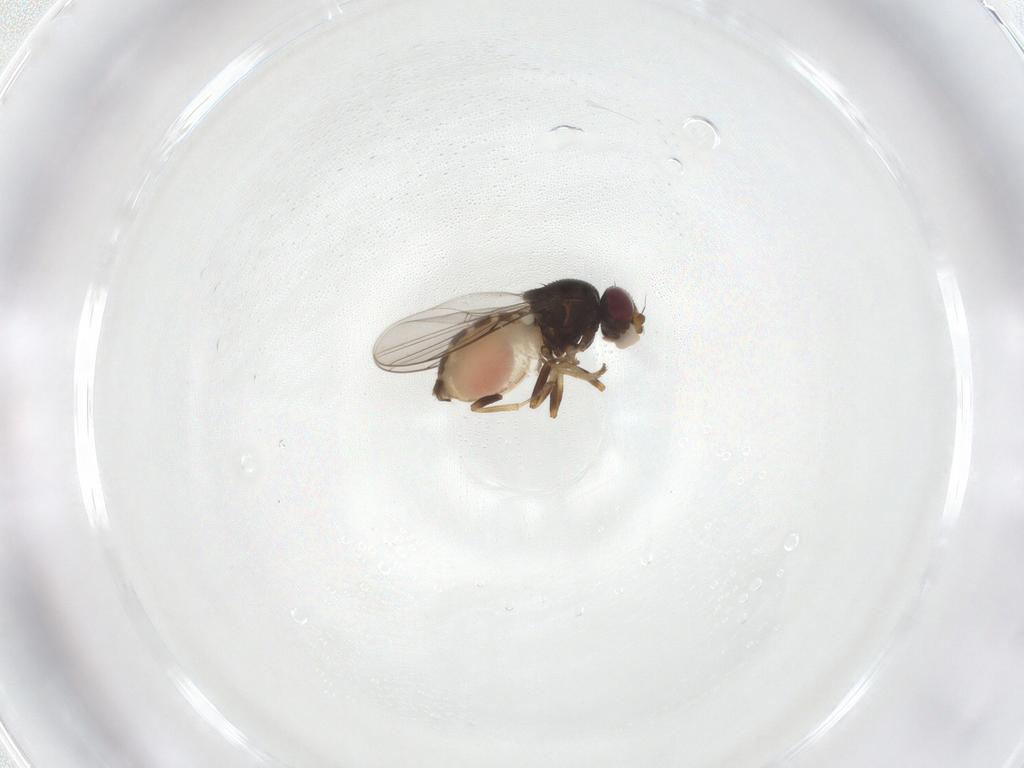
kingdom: Animalia
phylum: Arthropoda
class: Insecta
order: Diptera
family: Chloropidae
